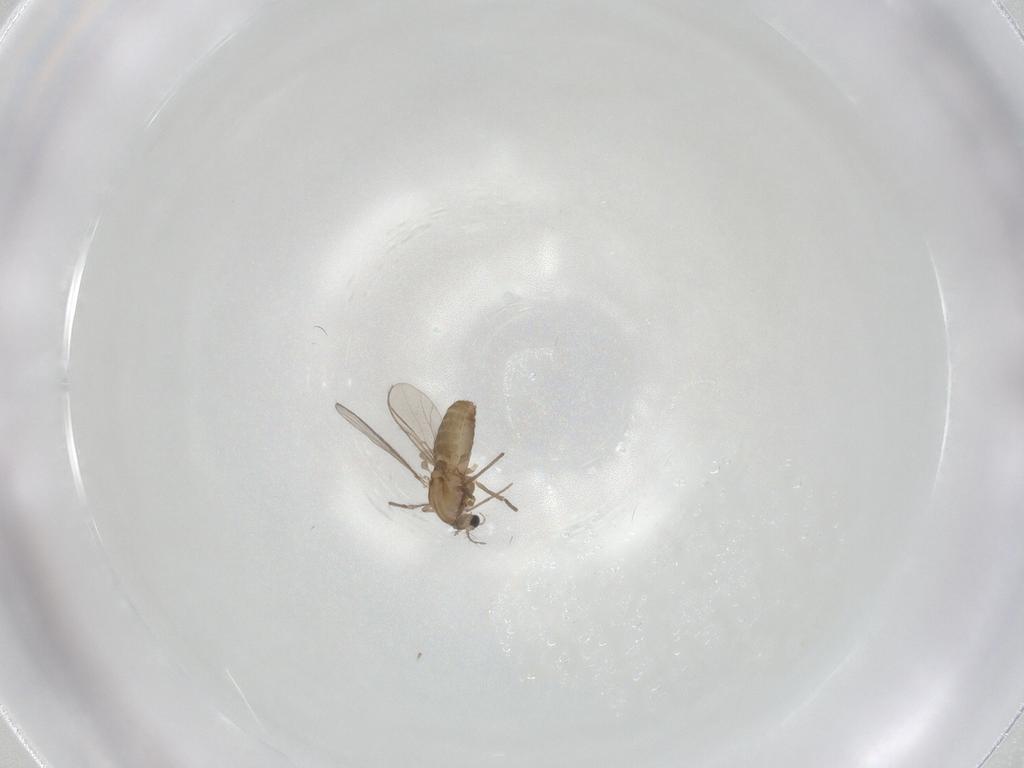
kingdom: Animalia
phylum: Arthropoda
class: Insecta
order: Diptera
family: Chironomidae
